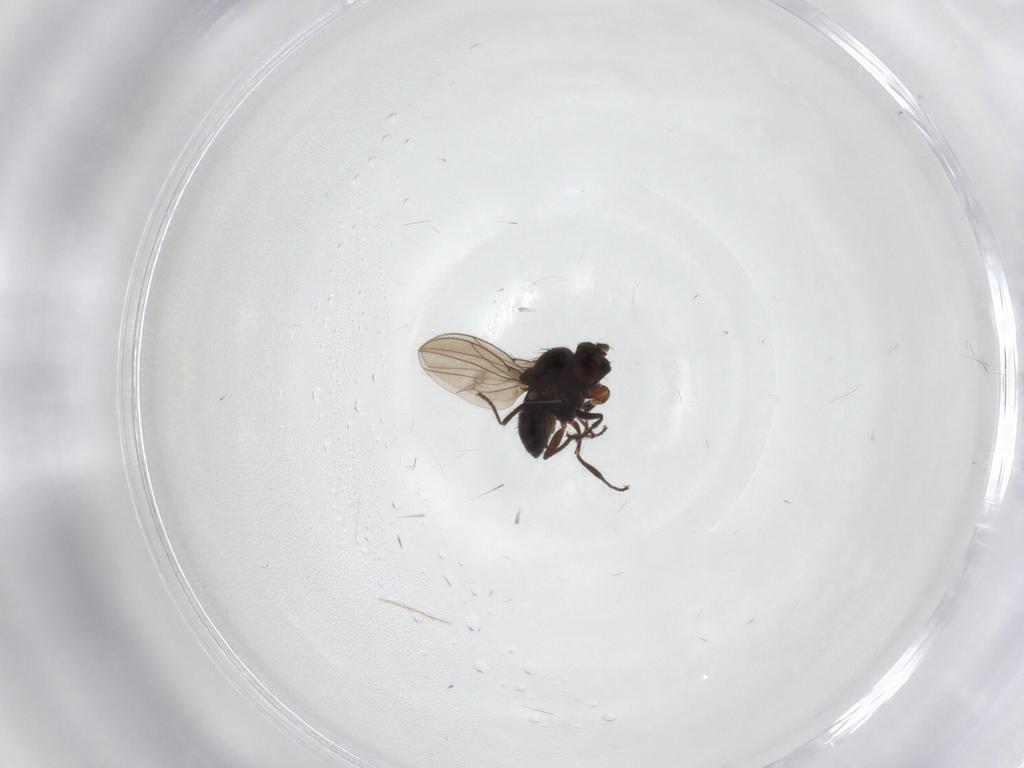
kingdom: Animalia
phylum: Arthropoda
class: Insecta
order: Diptera
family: Ephydridae
